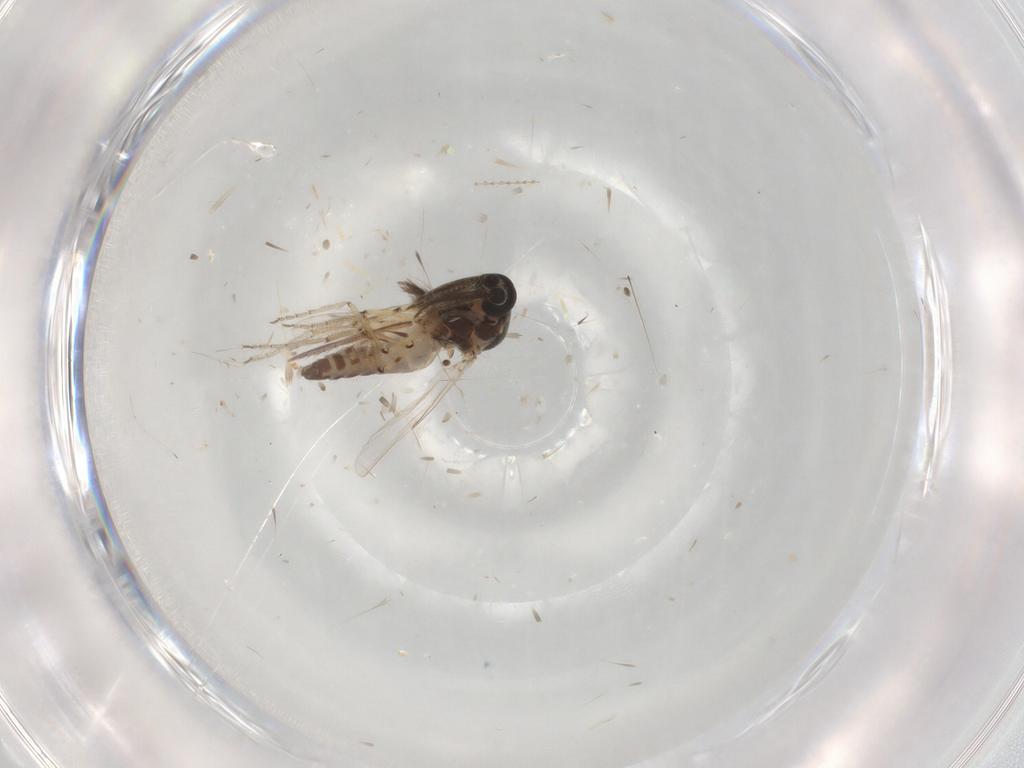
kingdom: Animalia
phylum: Arthropoda
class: Insecta
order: Diptera
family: Ceratopogonidae
